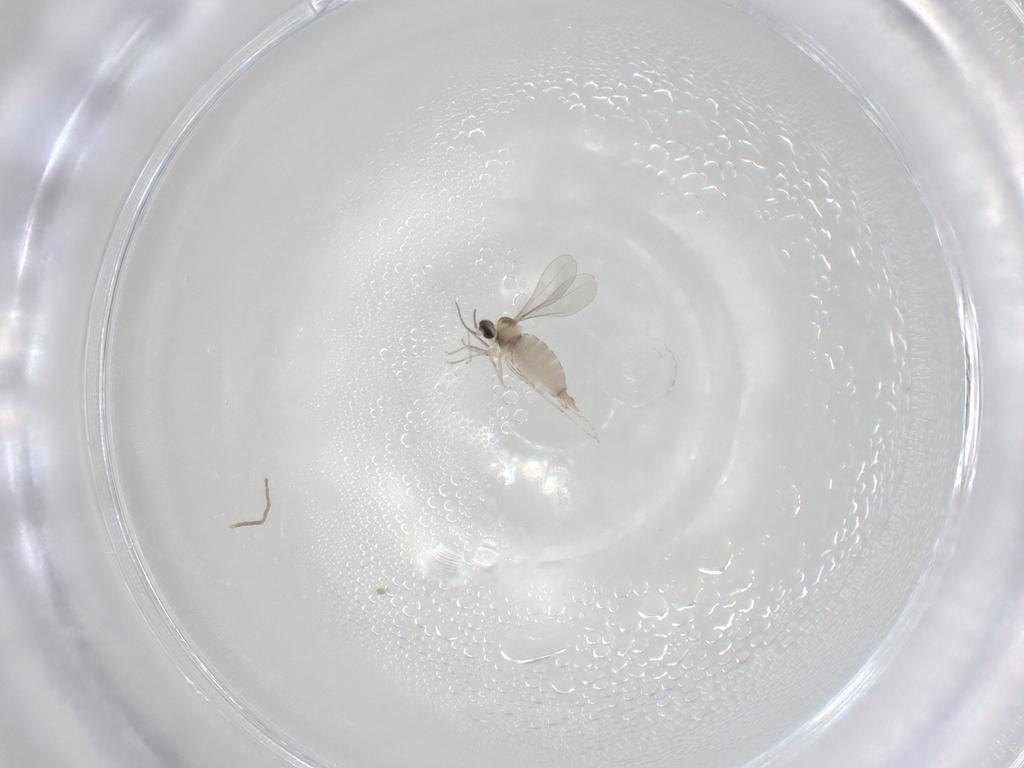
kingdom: Animalia
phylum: Arthropoda
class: Insecta
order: Diptera
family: Cecidomyiidae
